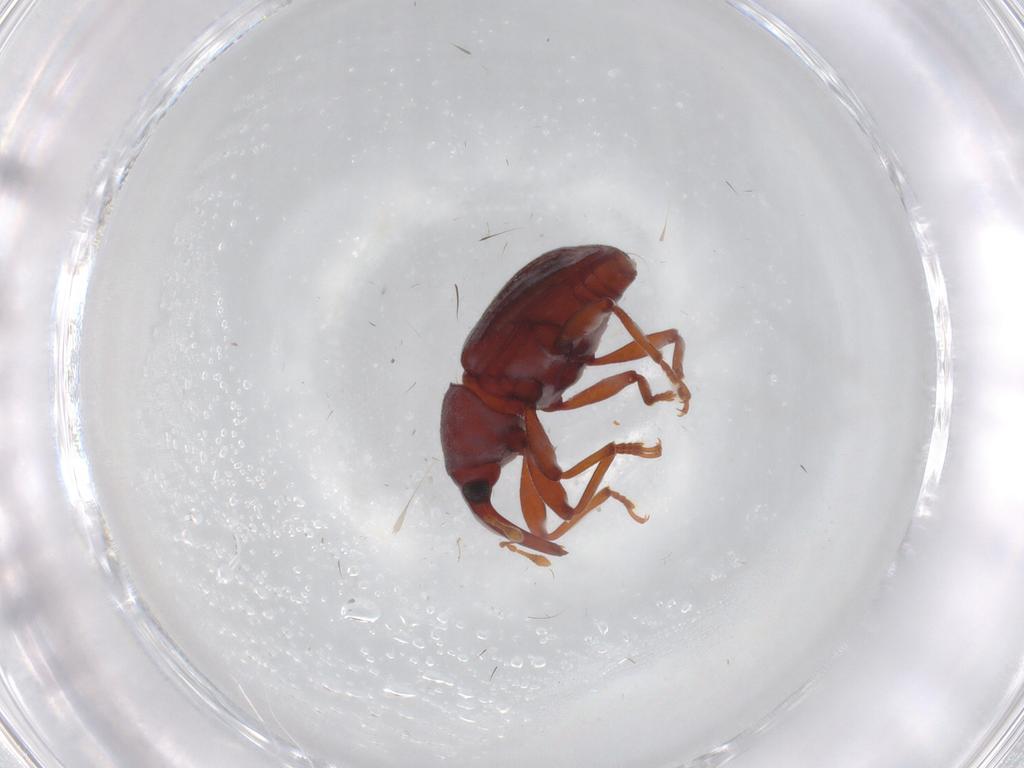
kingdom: Animalia
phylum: Arthropoda
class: Insecta
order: Coleoptera
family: Curculionidae
